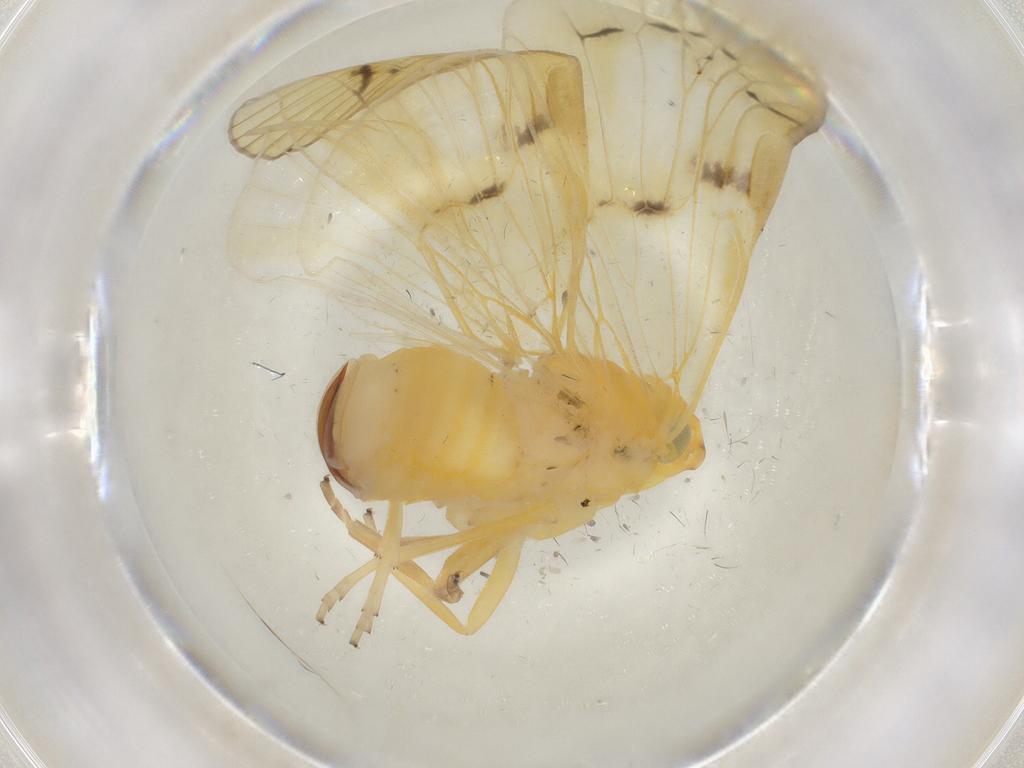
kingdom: Animalia
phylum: Arthropoda
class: Insecta
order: Hemiptera
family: Cixiidae
